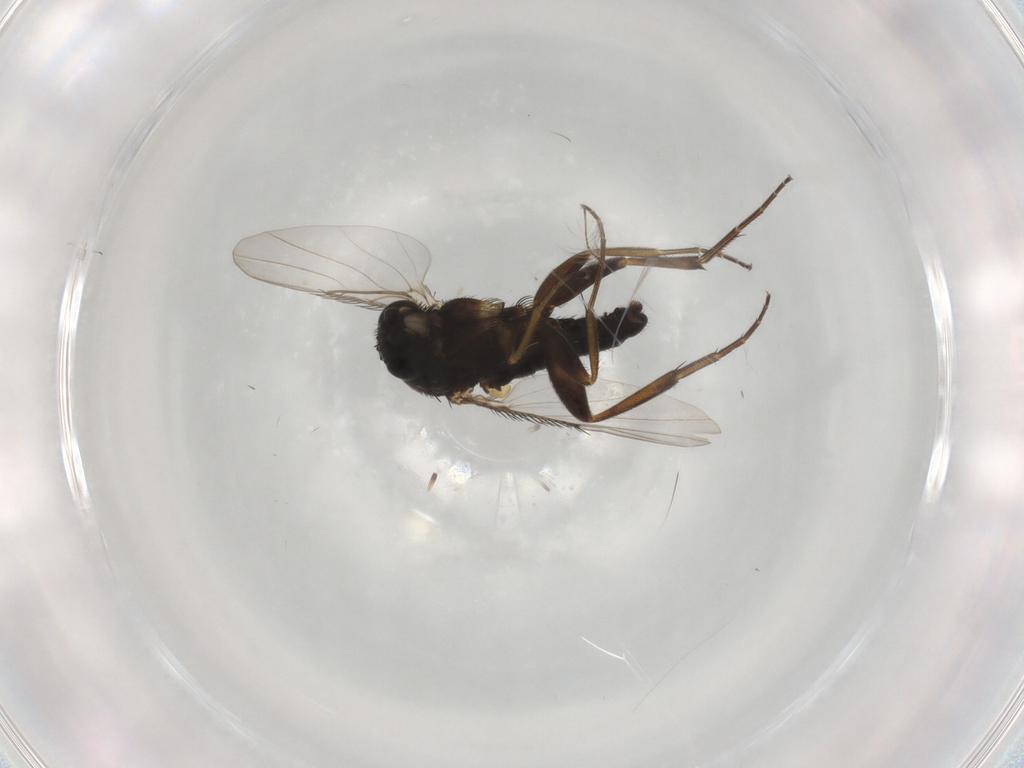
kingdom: Animalia
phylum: Arthropoda
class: Insecta
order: Diptera
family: Phoridae
